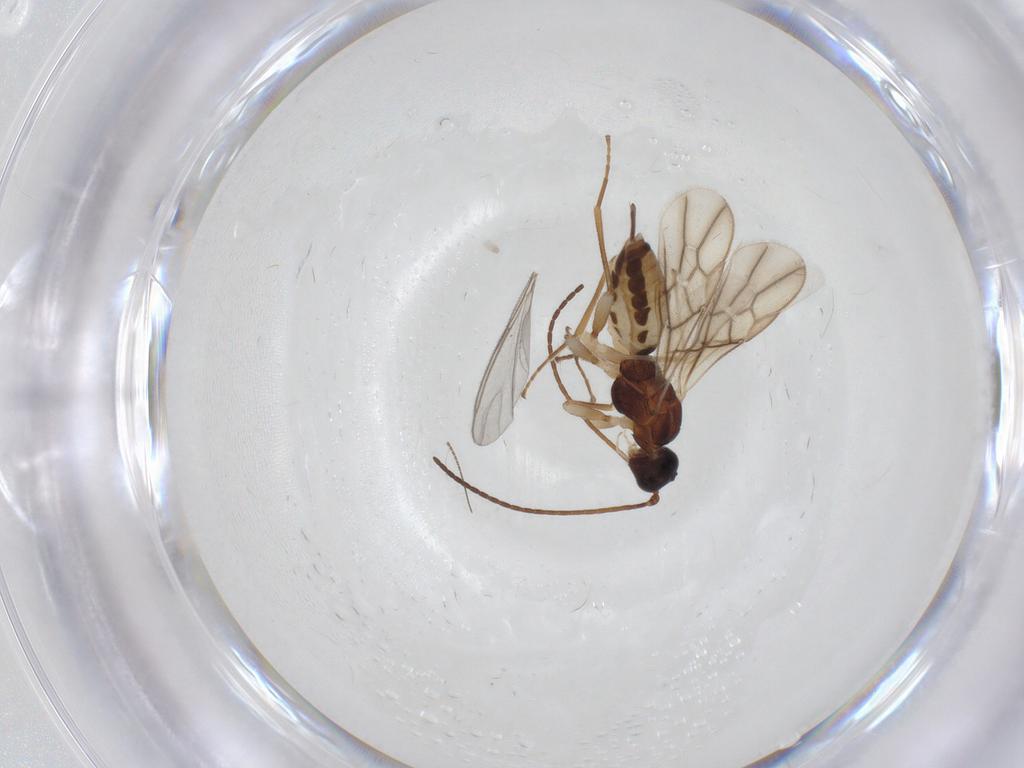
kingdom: Animalia
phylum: Arthropoda
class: Insecta
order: Hymenoptera
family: Braconidae
